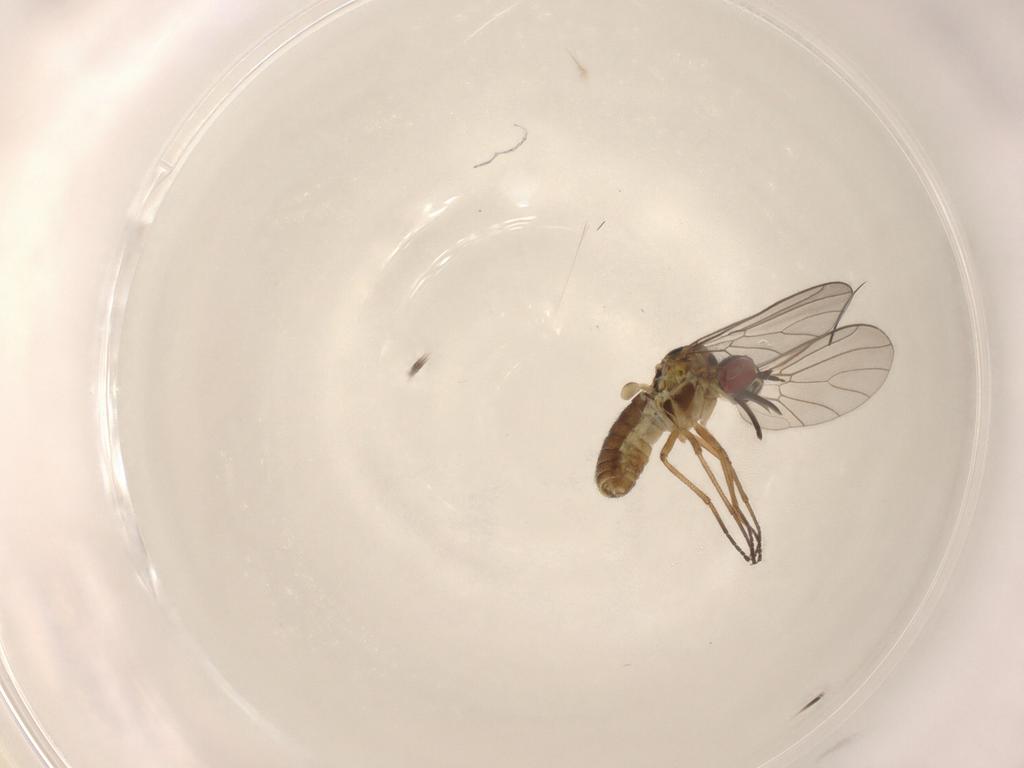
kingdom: Animalia
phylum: Arthropoda
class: Insecta
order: Diptera
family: Bombyliidae
